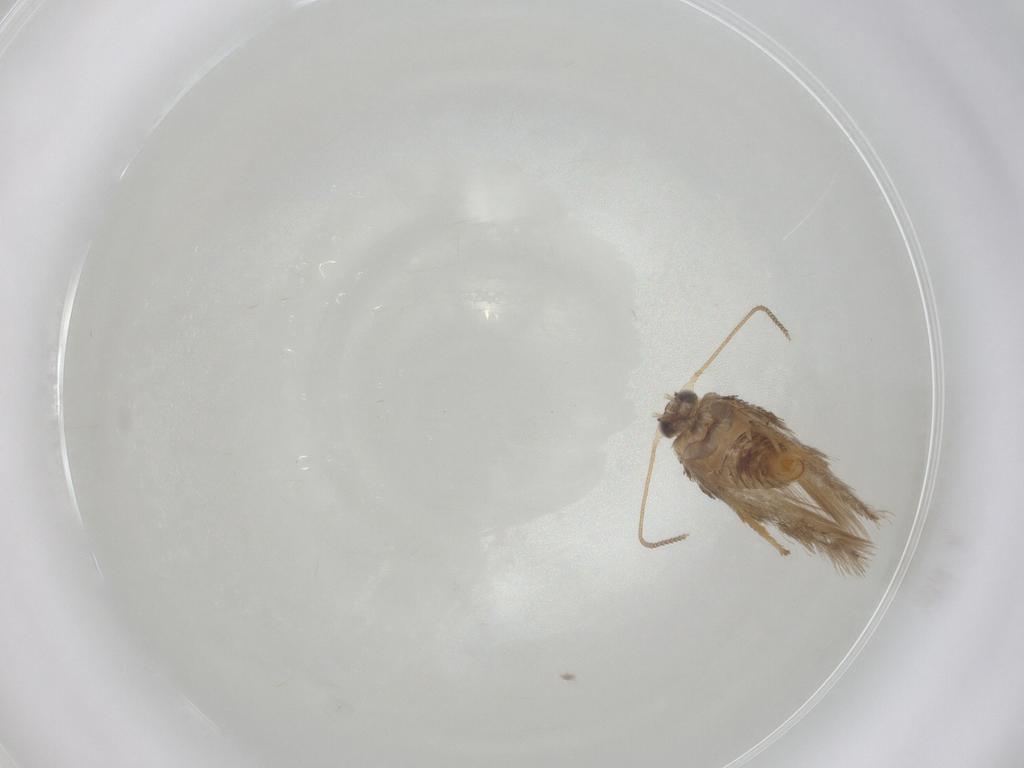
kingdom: Animalia
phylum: Arthropoda
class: Insecta
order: Lepidoptera
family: Nepticulidae
